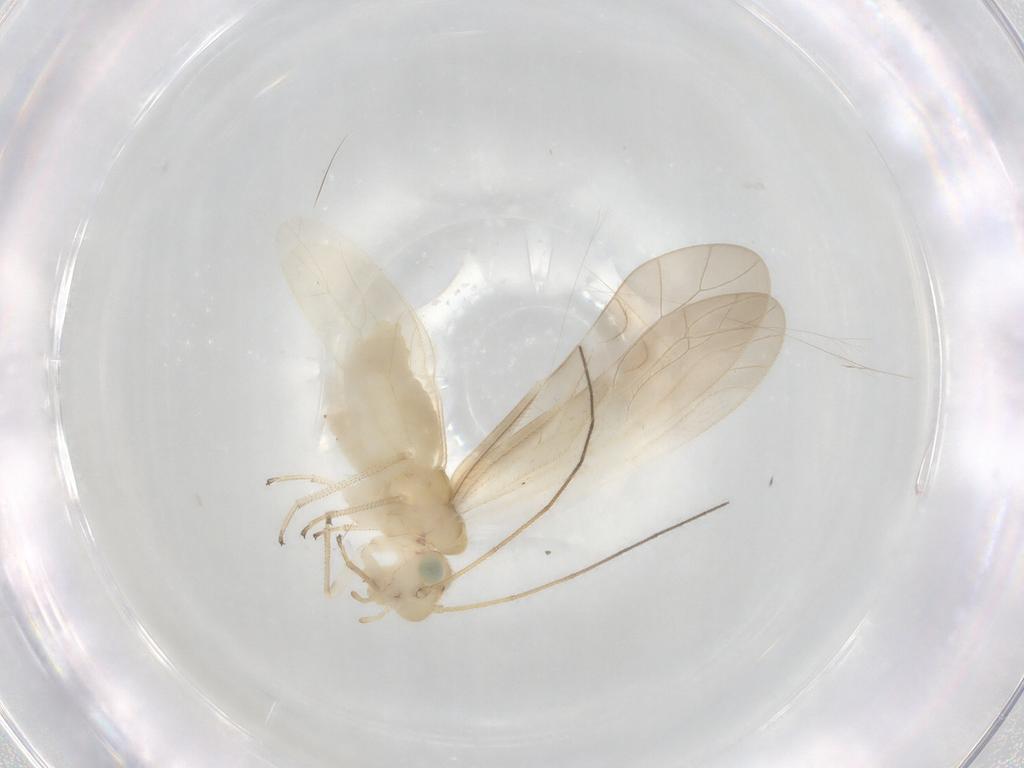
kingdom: Animalia
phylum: Arthropoda
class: Insecta
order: Psocodea
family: Caeciliusidae
